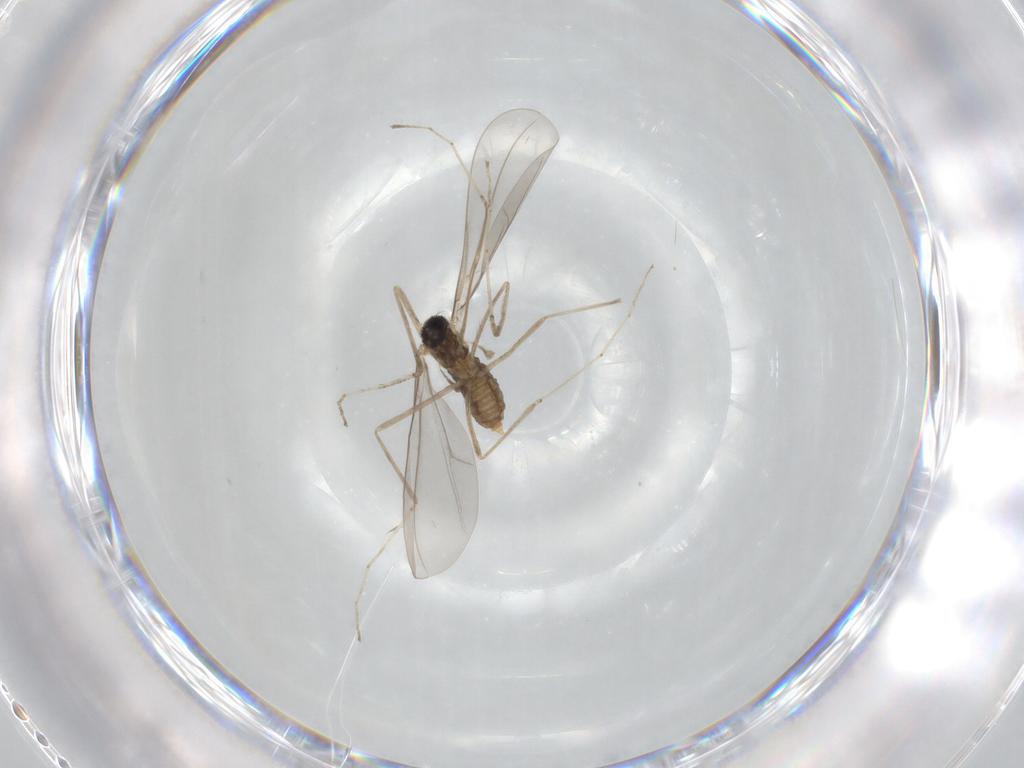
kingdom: Animalia
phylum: Arthropoda
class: Insecta
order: Diptera
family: Cecidomyiidae
